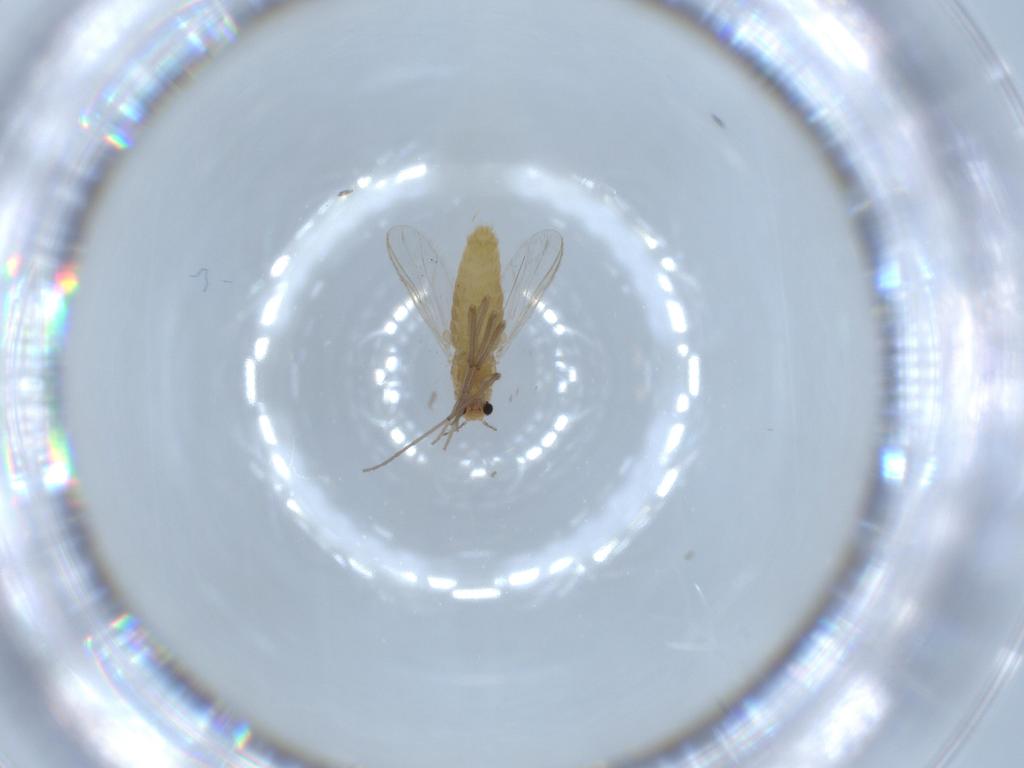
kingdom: Animalia
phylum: Arthropoda
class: Insecta
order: Diptera
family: Chironomidae
